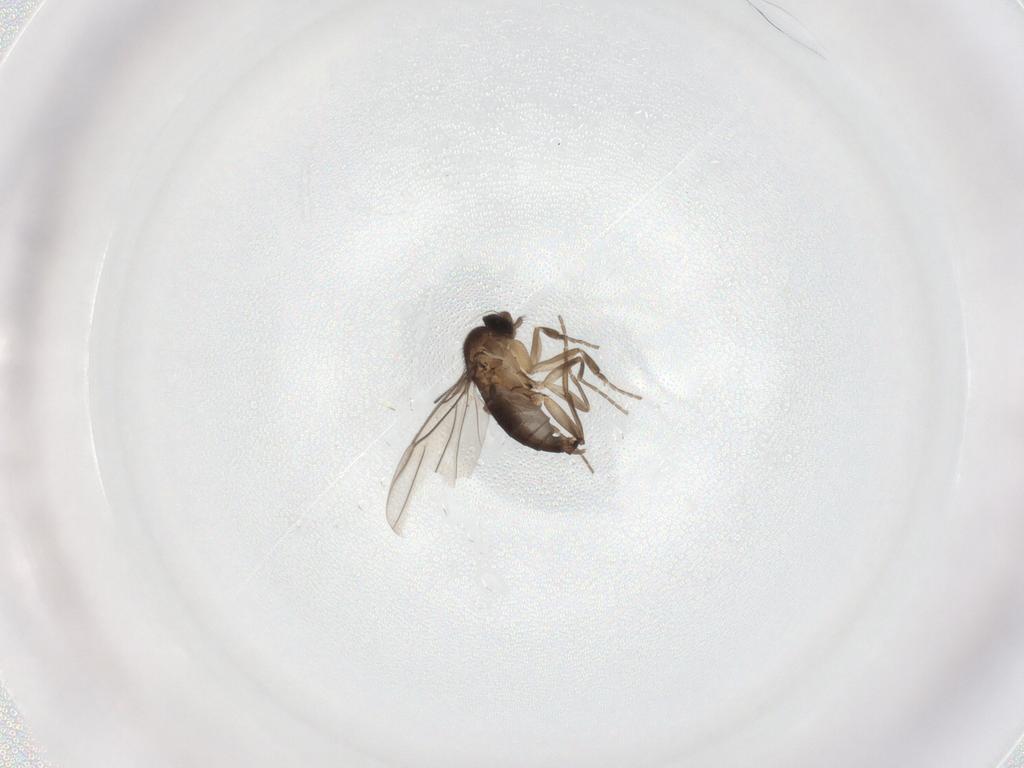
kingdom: Animalia
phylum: Arthropoda
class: Insecta
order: Diptera
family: Phoridae
